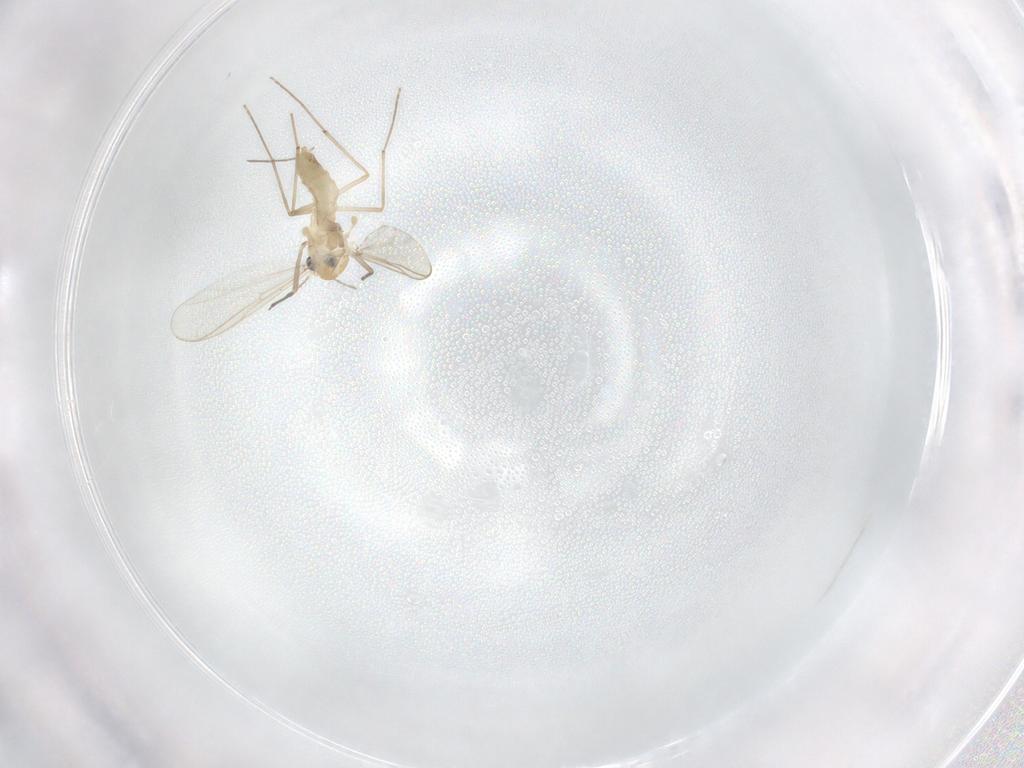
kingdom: Animalia
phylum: Arthropoda
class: Insecta
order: Diptera
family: Chironomidae
